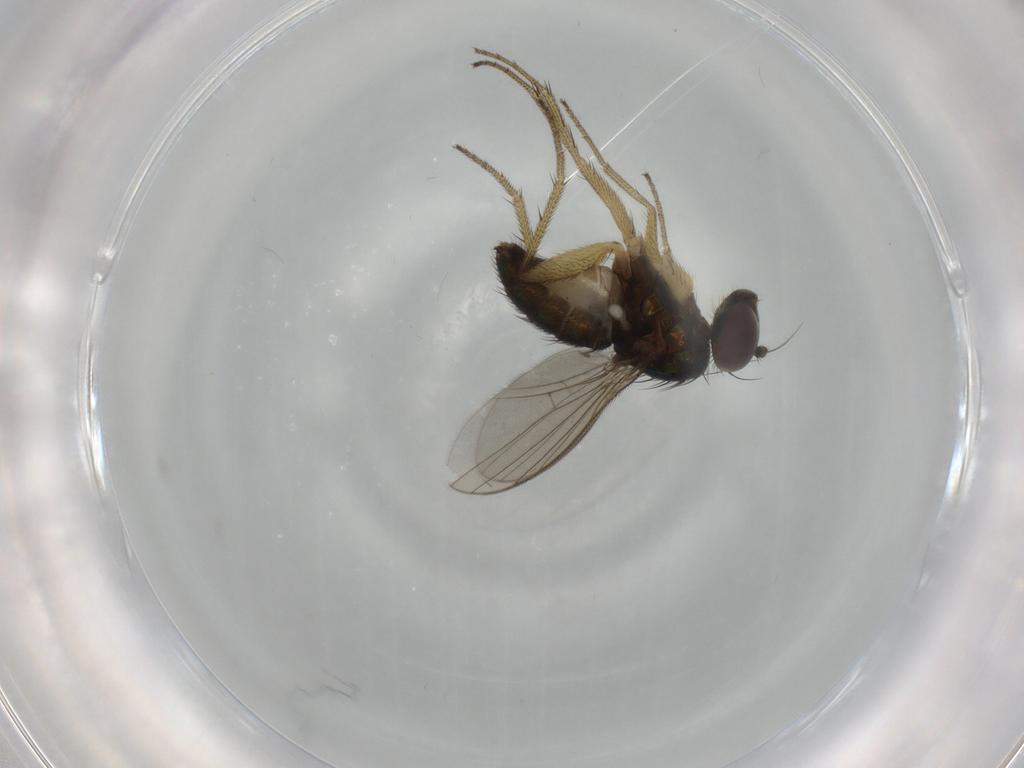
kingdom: Animalia
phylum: Arthropoda
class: Insecta
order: Diptera
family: Dolichopodidae
